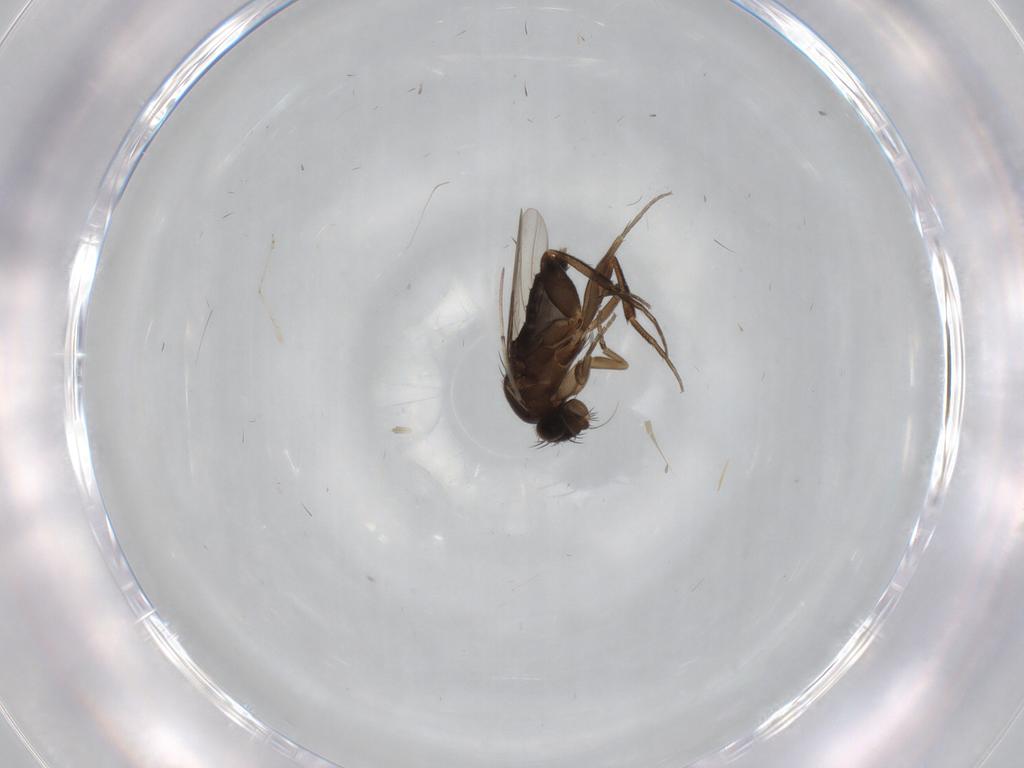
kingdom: Animalia
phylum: Arthropoda
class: Insecta
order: Diptera
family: Phoridae
